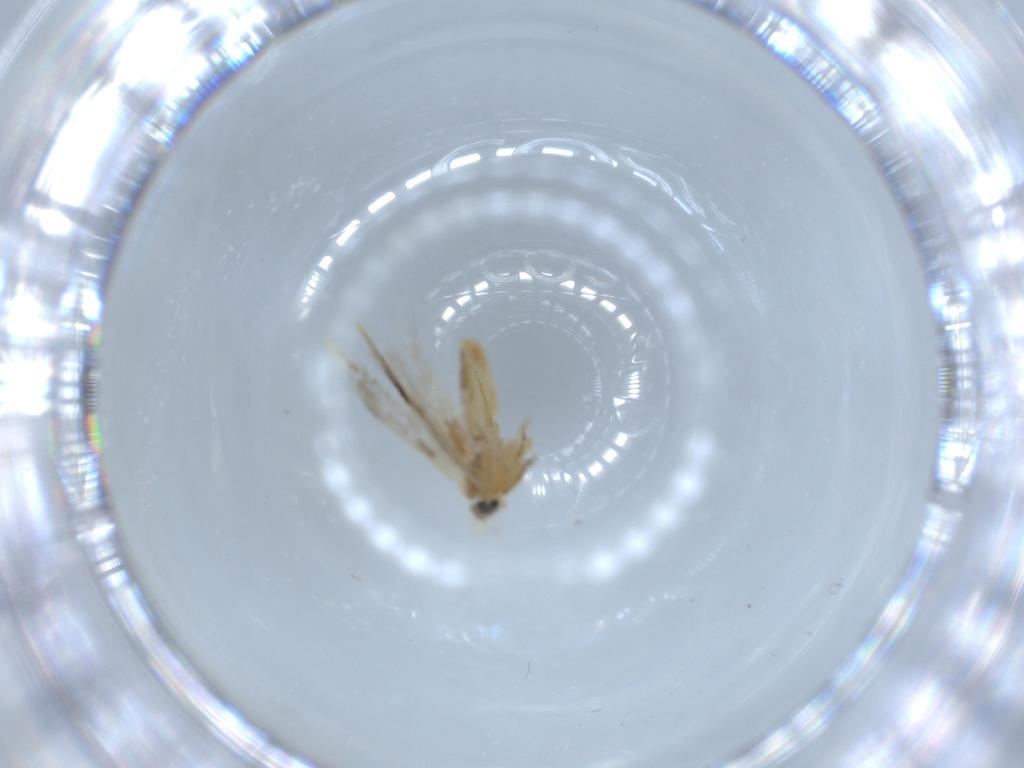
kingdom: Animalia
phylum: Arthropoda
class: Insecta
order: Lepidoptera
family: Nepticulidae
